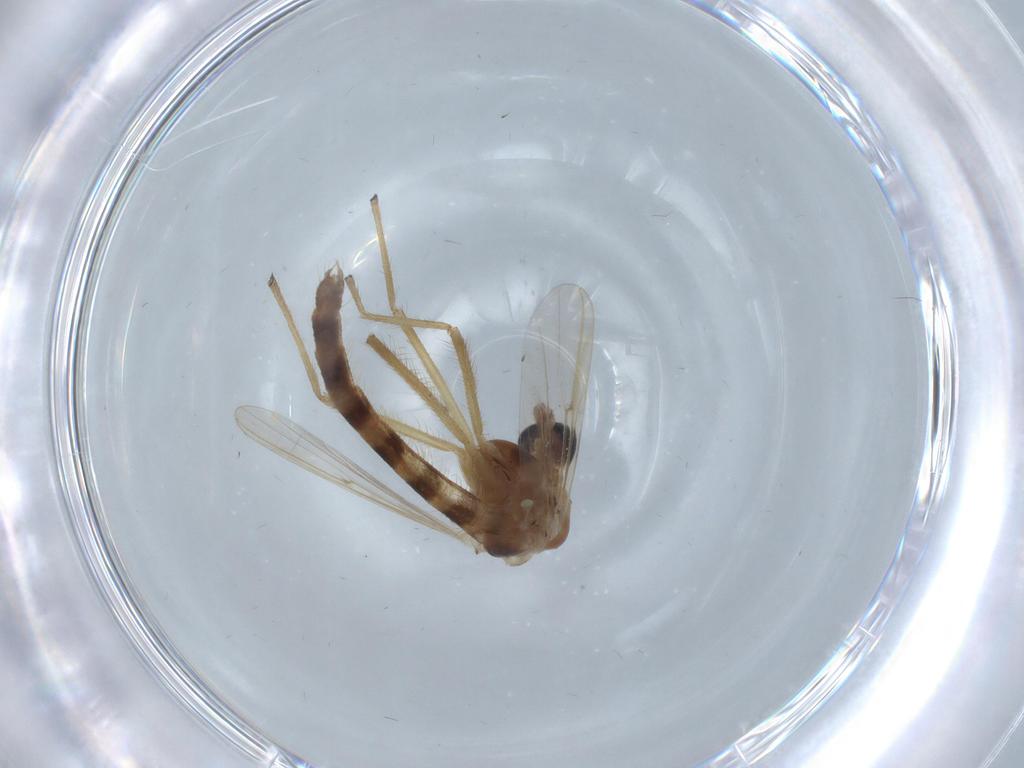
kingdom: Animalia
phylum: Arthropoda
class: Insecta
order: Diptera
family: Chironomidae
